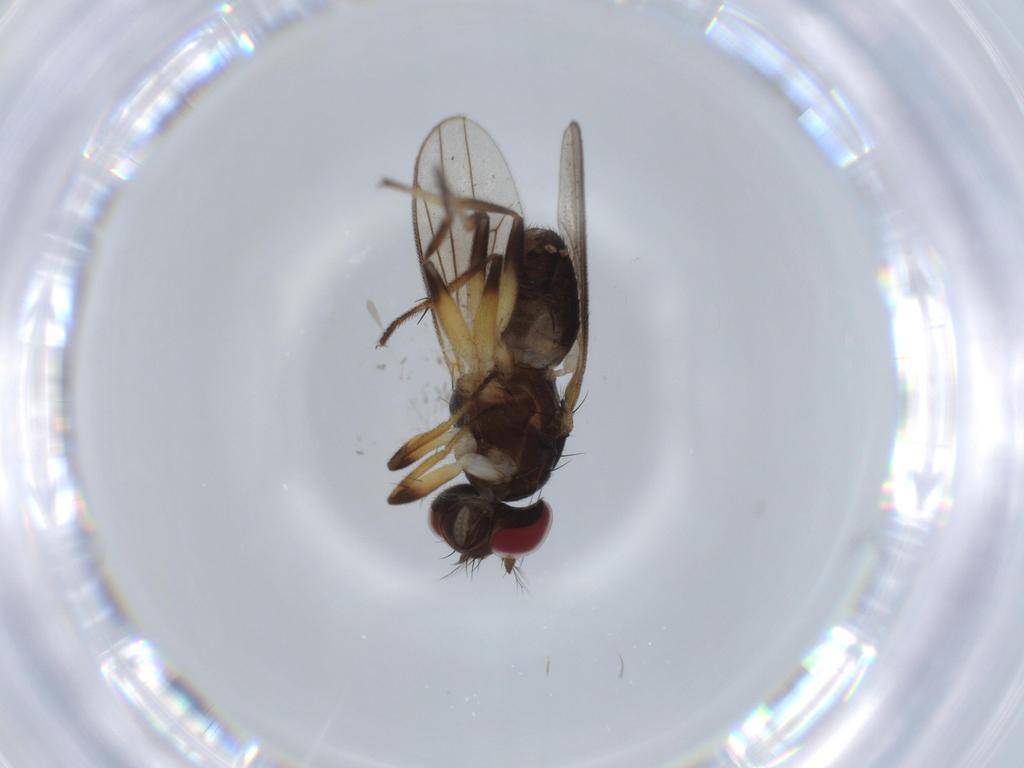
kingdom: Animalia
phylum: Arthropoda
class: Insecta
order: Diptera
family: Periscelididae
